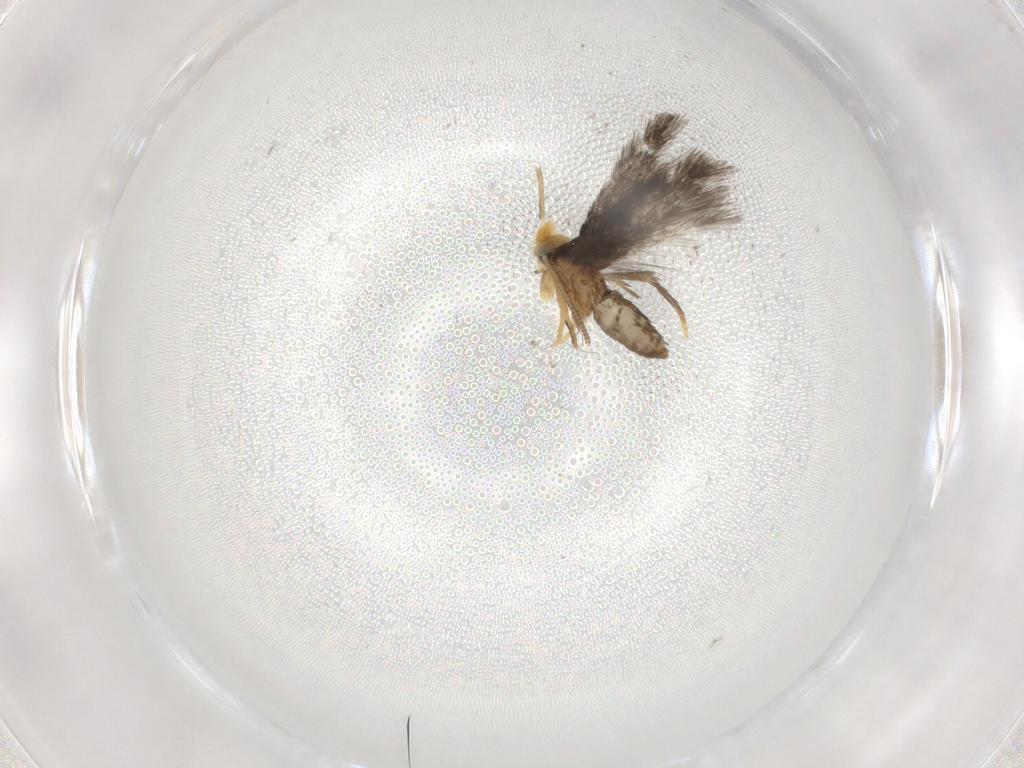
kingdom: Animalia
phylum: Arthropoda
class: Insecta
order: Lepidoptera
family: Nepticulidae
